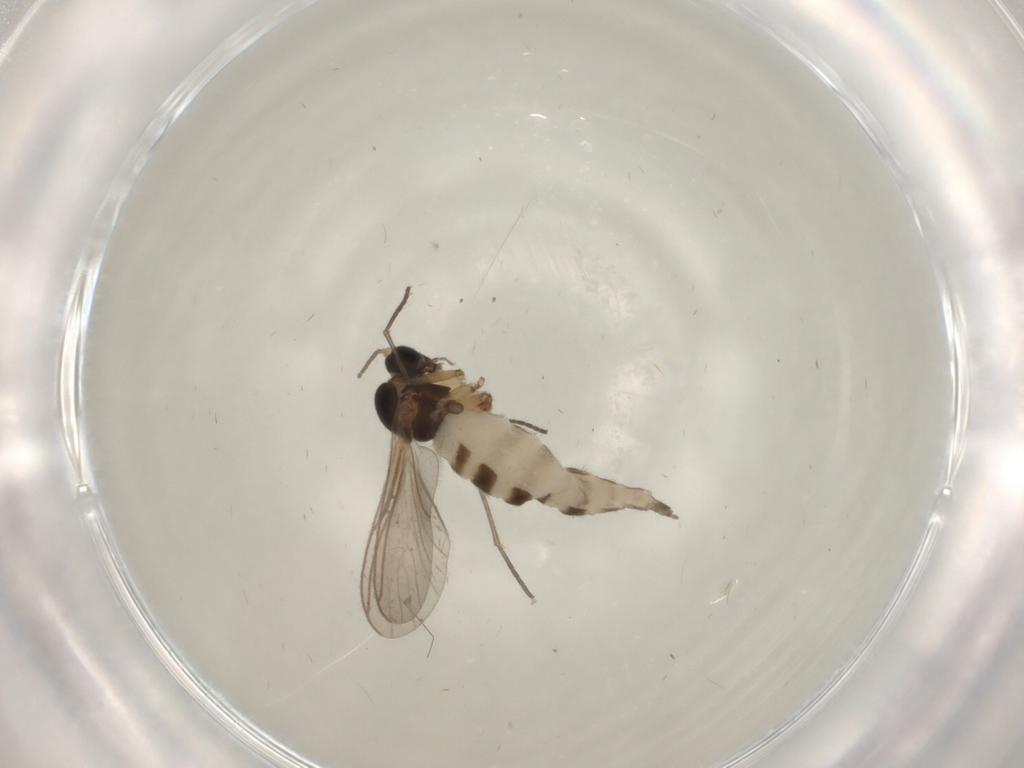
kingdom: Animalia
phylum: Arthropoda
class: Insecta
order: Diptera
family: Sciaridae
